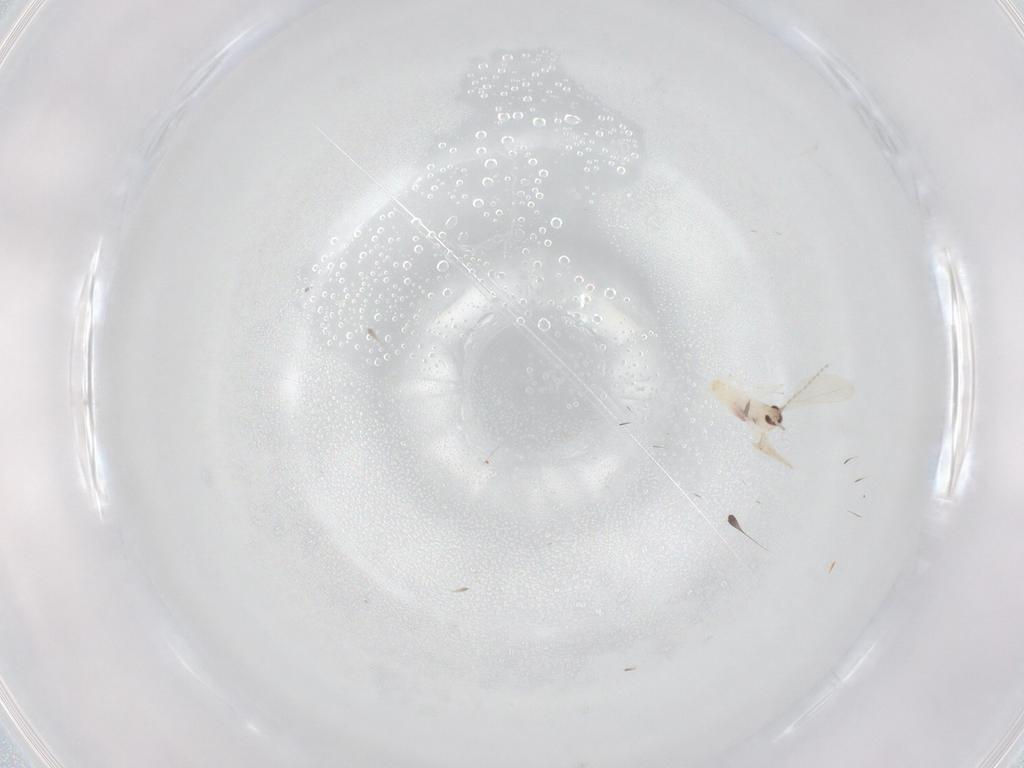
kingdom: Animalia
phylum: Arthropoda
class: Insecta
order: Diptera
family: Cecidomyiidae
